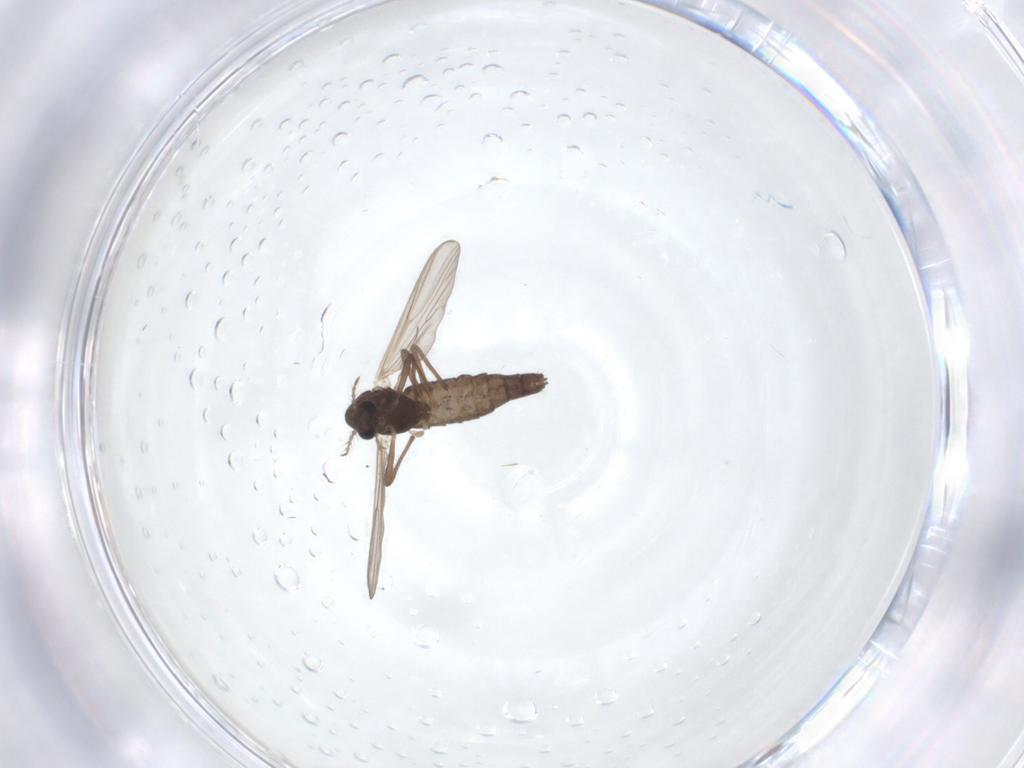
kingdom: Animalia
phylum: Arthropoda
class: Insecta
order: Diptera
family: Chironomidae
